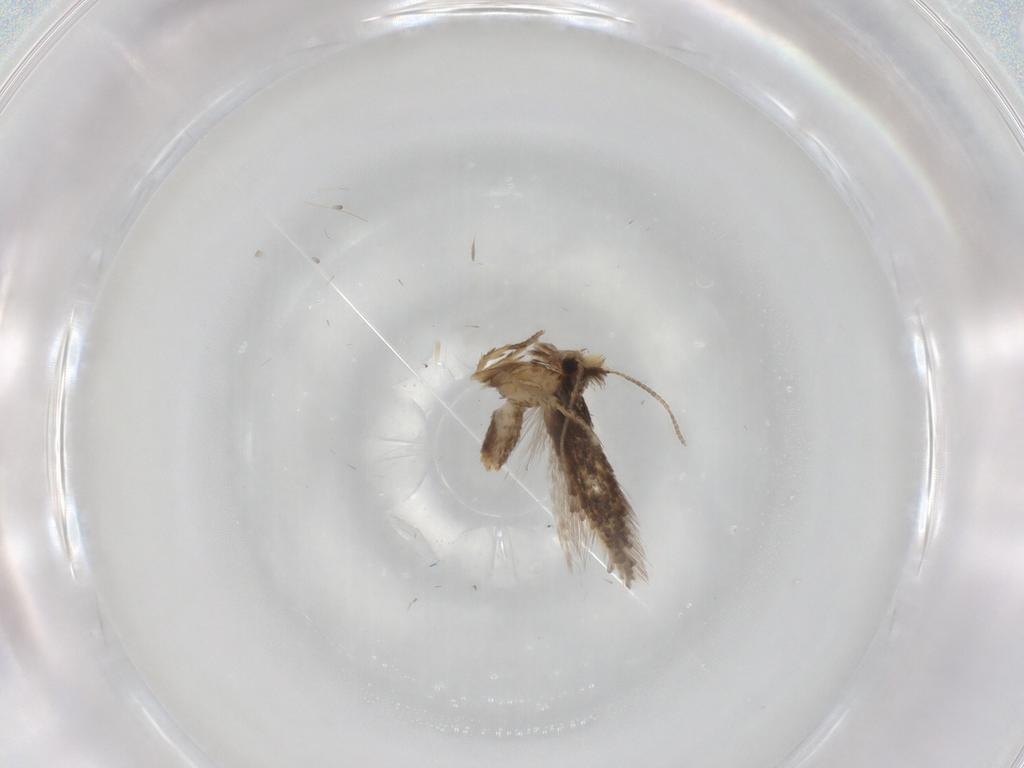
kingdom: Animalia
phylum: Arthropoda
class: Insecta
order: Lepidoptera
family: Nepticulidae
